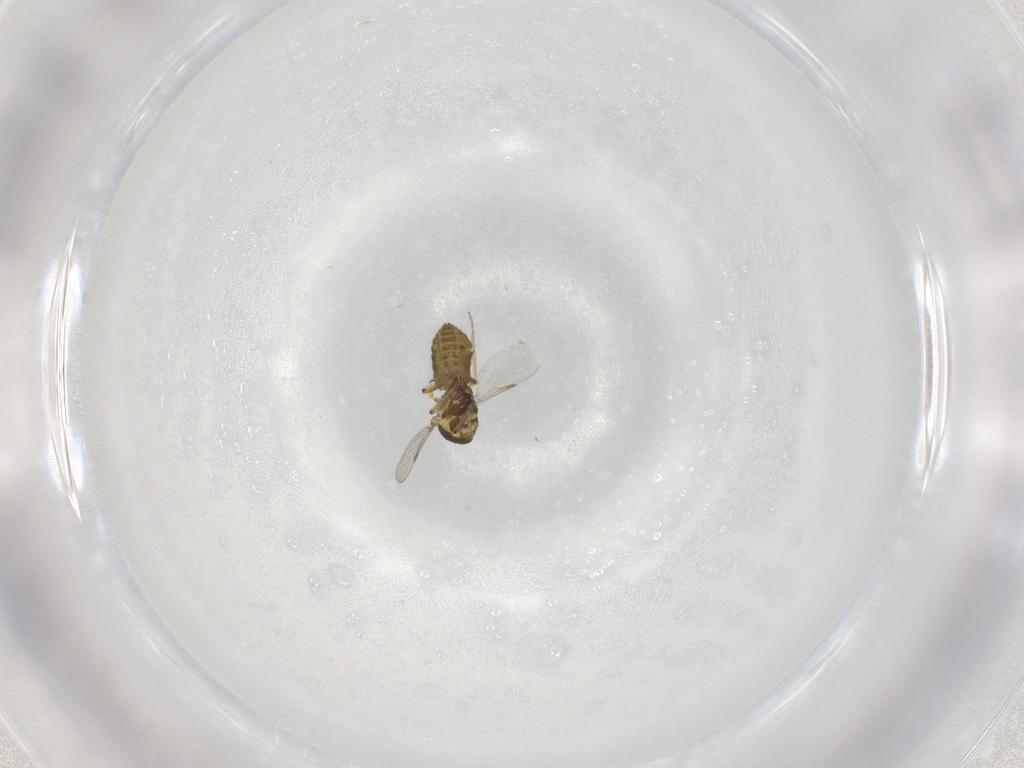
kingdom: Animalia
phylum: Arthropoda
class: Insecta
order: Diptera
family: Ceratopogonidae
